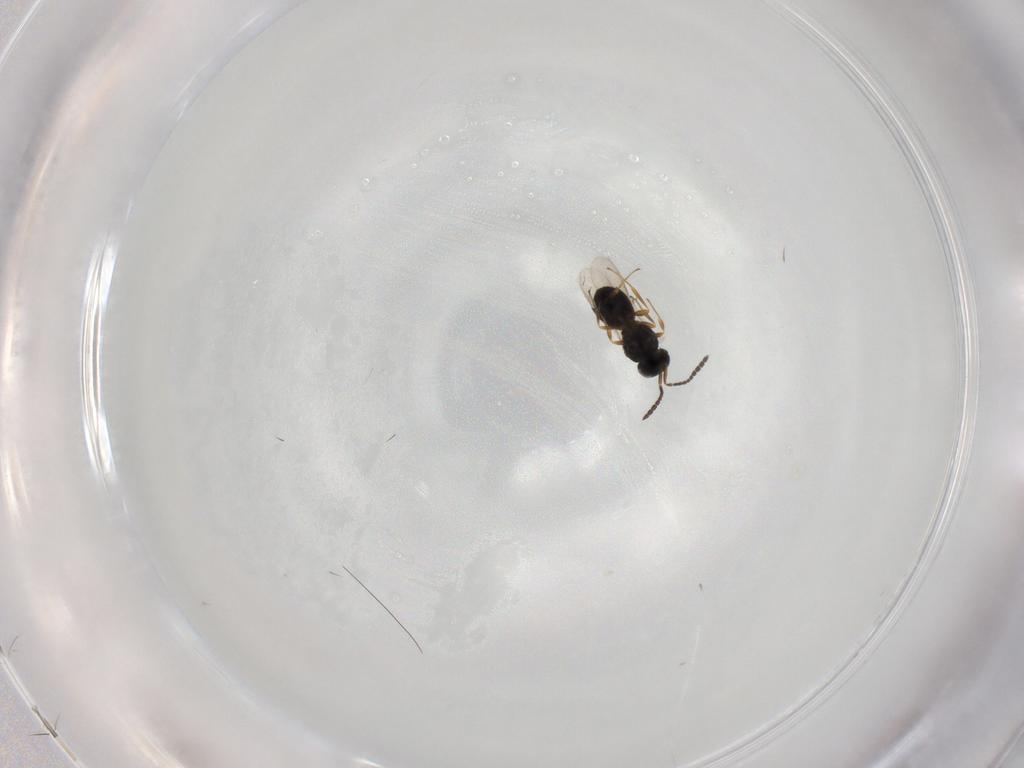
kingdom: Animalia
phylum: Arthropoda
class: Insecta
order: Hymenoptera
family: Scelionidae
